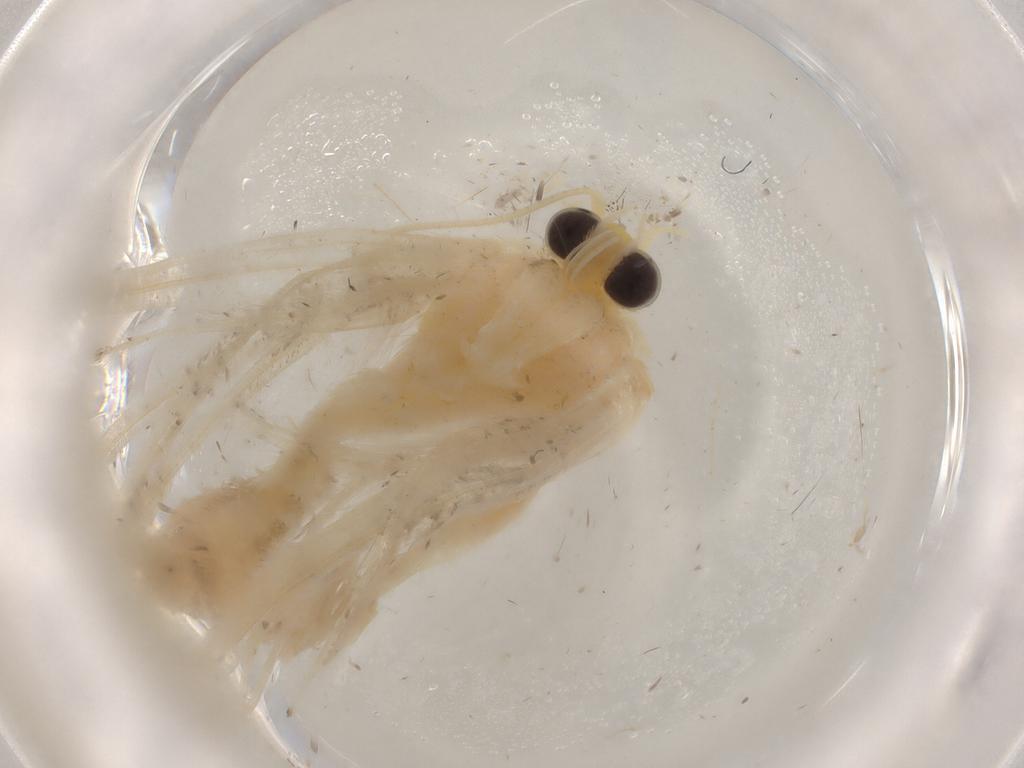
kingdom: Animalia
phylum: Arthropoda
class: Insecta
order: Lepidoptera
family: Pterophoridae
